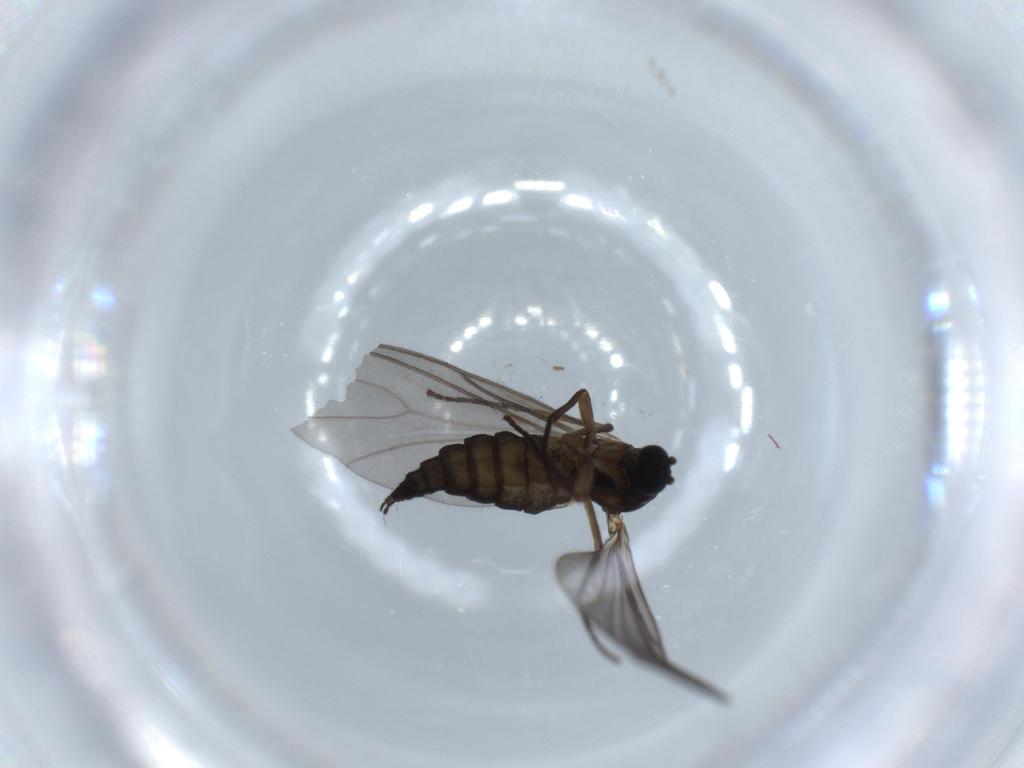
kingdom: Animalia
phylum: Arthropoda
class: Insecta
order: Diptera
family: Sciaridae
